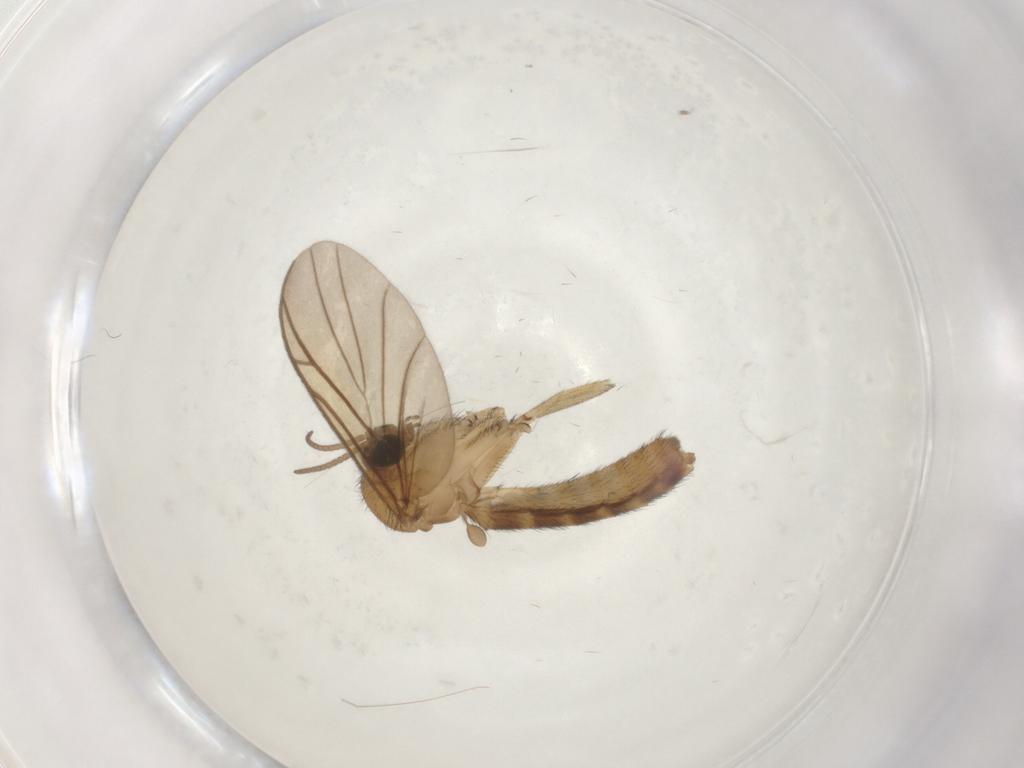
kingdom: Animalia
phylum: Arthropoda
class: Insecta
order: Diptera
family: Keroplatidae
